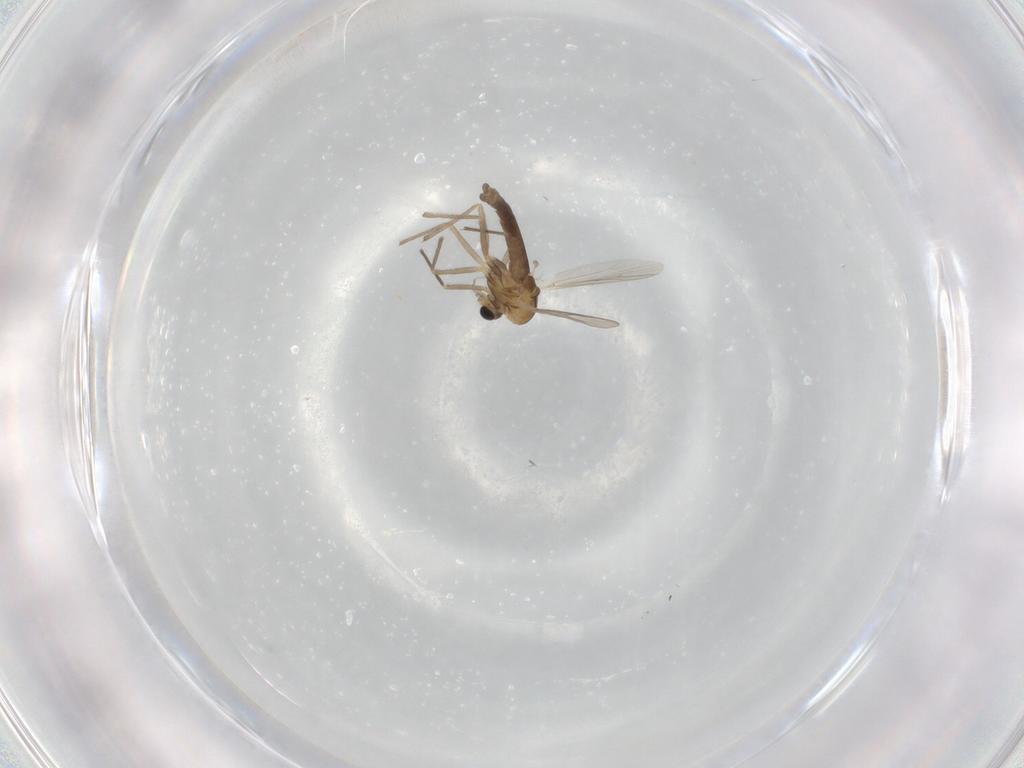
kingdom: Animalia
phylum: Arthropoda
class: Insecta
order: Diptera
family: Chironomidae
